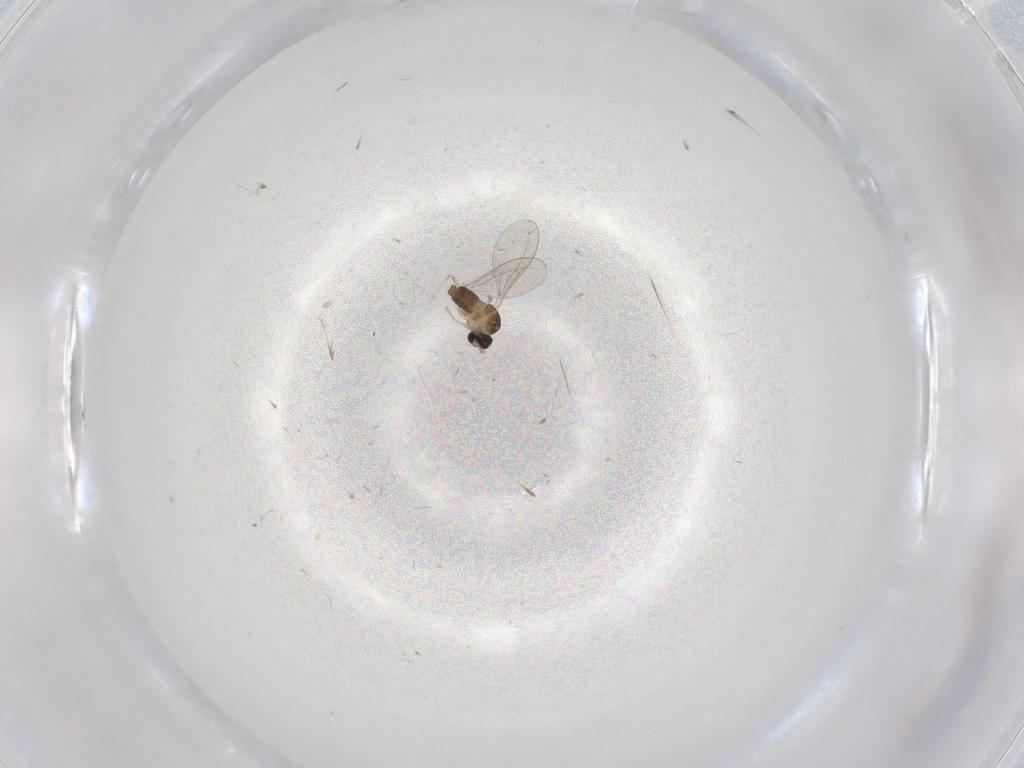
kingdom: Animalia
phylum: Arthropoda
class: Insecta
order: Diptera
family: Cecidomyiidae
